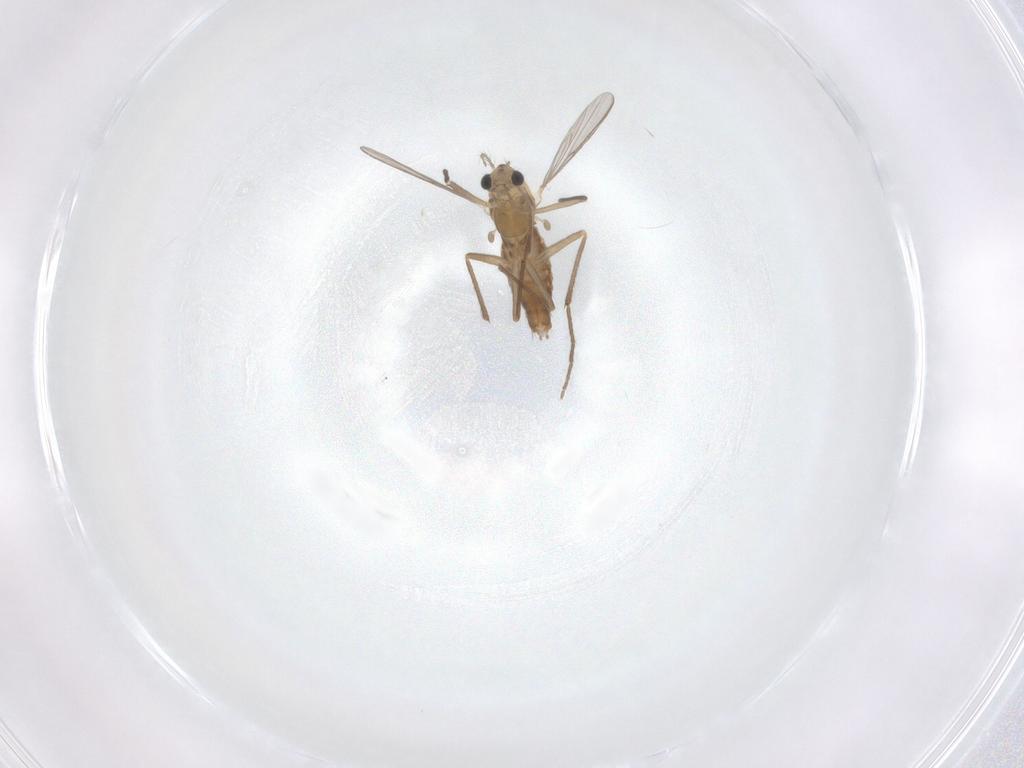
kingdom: Animalia
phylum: Arthropoda
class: Insecta
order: Diptera
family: Chironomidae
